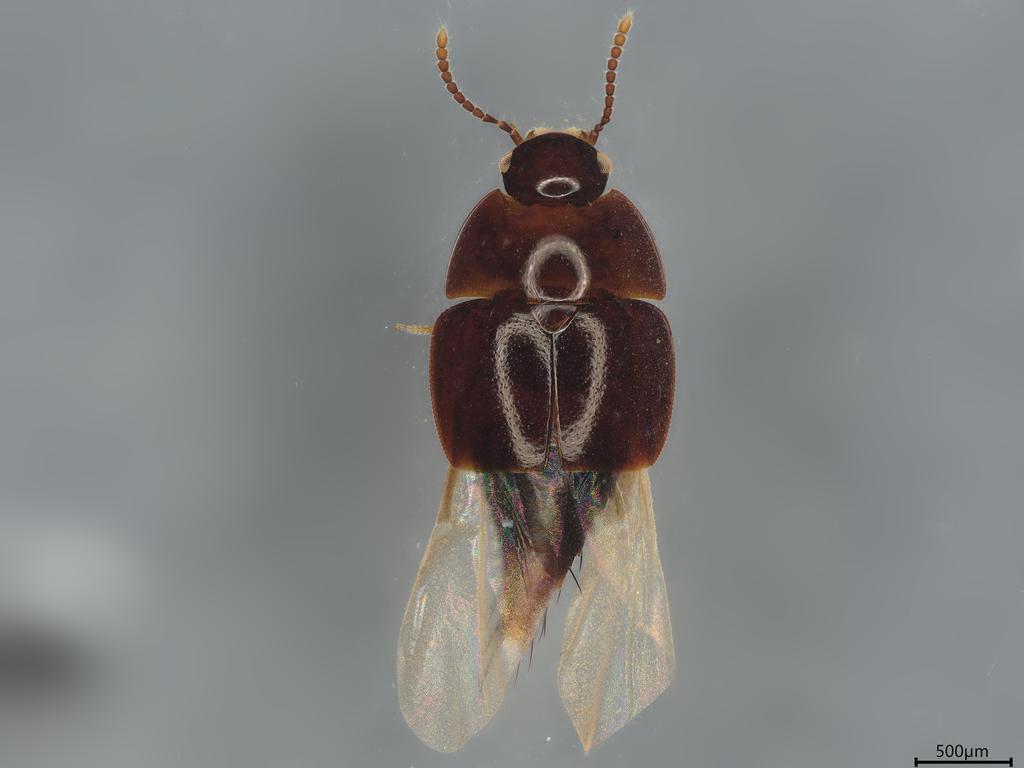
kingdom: Animalia
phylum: Arthropoda
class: Insecta
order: Coleoptera
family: Staphylinidae
